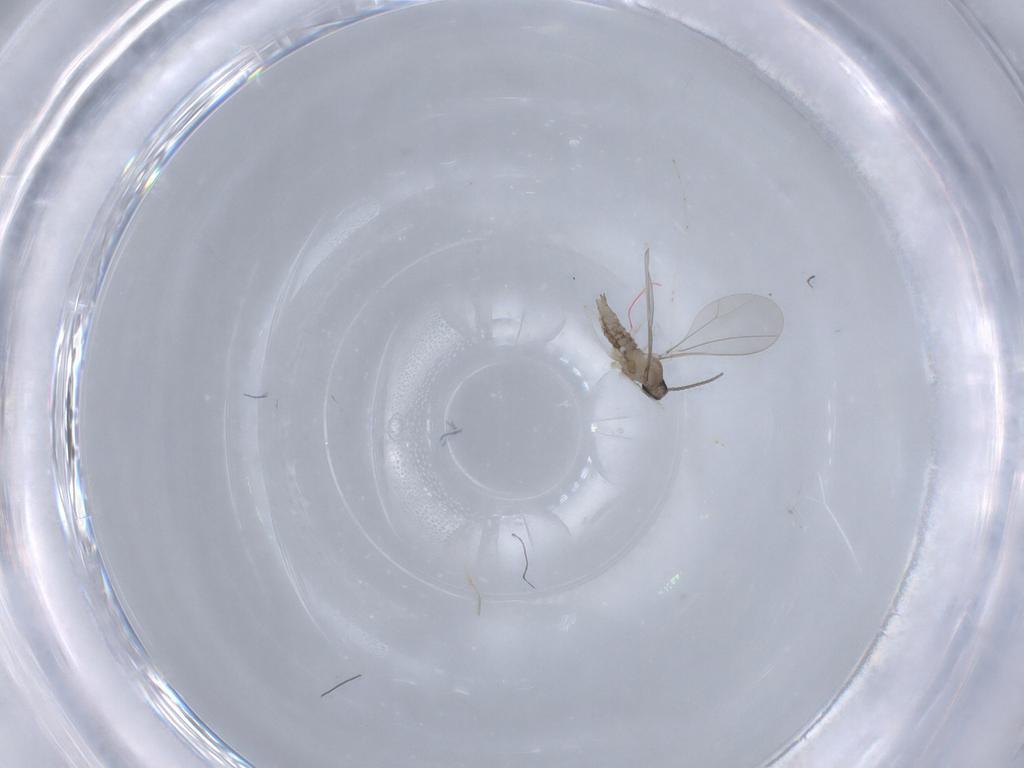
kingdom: Animalia
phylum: Arthropoda
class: Insecta
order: Diptera
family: Cecidomyiidae
